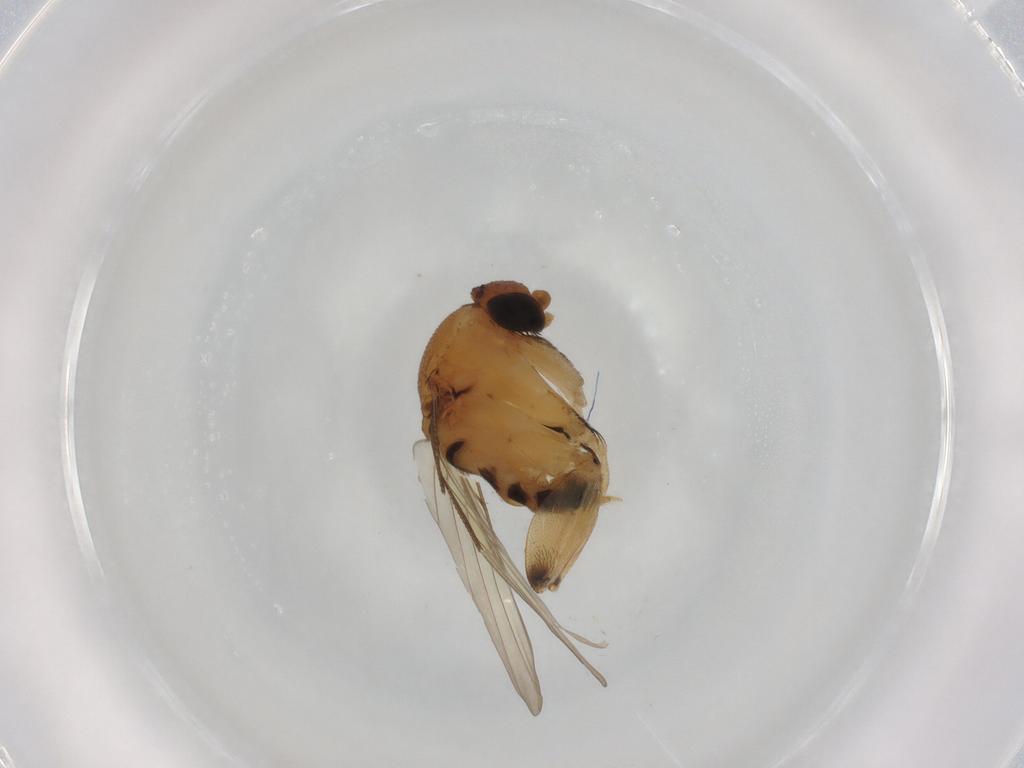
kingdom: Animalia
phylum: Arthropoda
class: Insecta
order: Diptera
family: Phoridae
